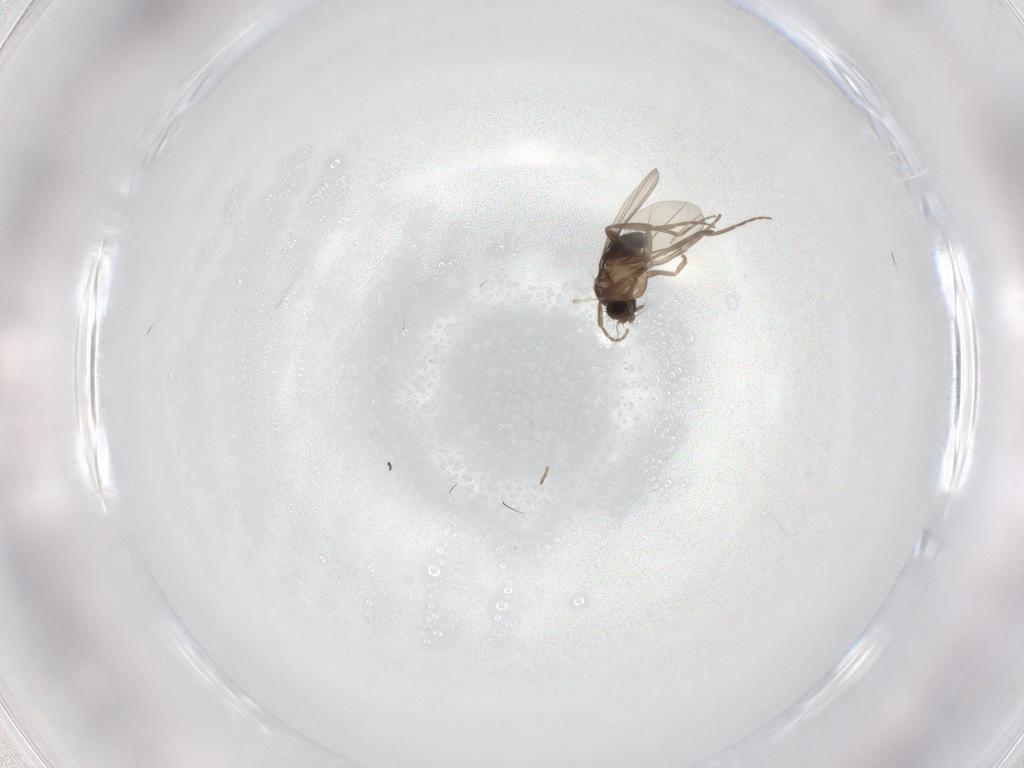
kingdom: Animalia
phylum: Arthropoda
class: Insecta
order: Diptera
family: Phoridae
